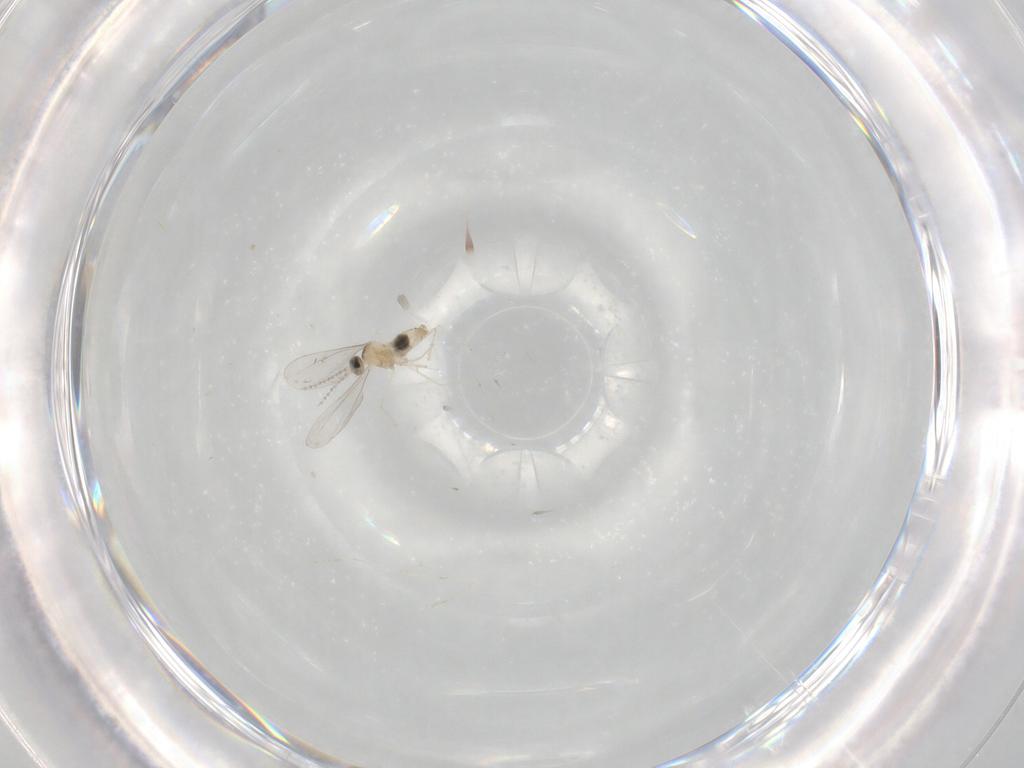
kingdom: Animalia
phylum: Arthropoda
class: Insecta
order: Diptera
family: Cecidomyiidae
